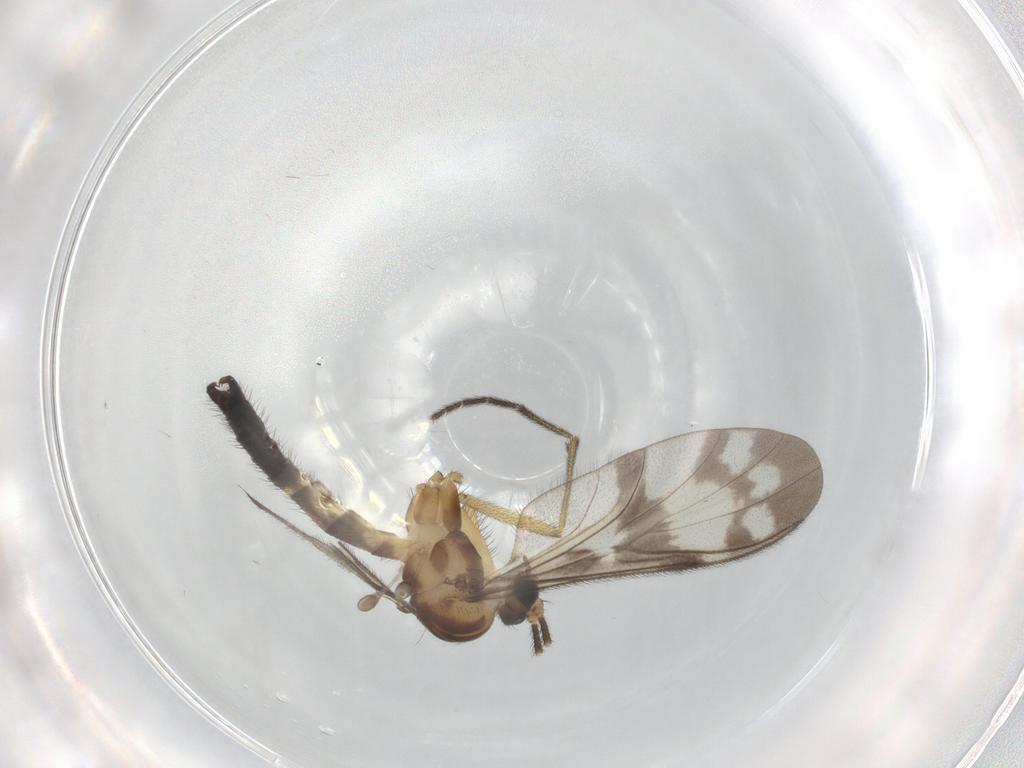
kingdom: Animalia
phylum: Arthropoda
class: Insecta
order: Diptera
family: Keroplatidae
